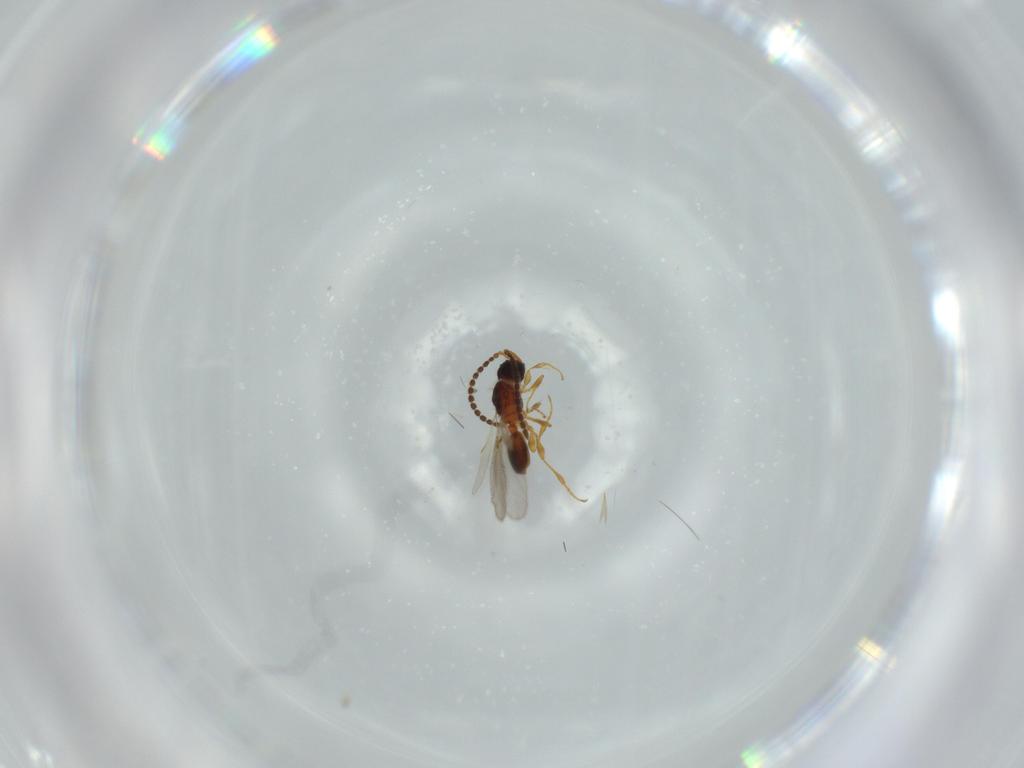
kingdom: Animalia
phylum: Arthropoda
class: Insecta
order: Hymenoptera
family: Diapriidae
